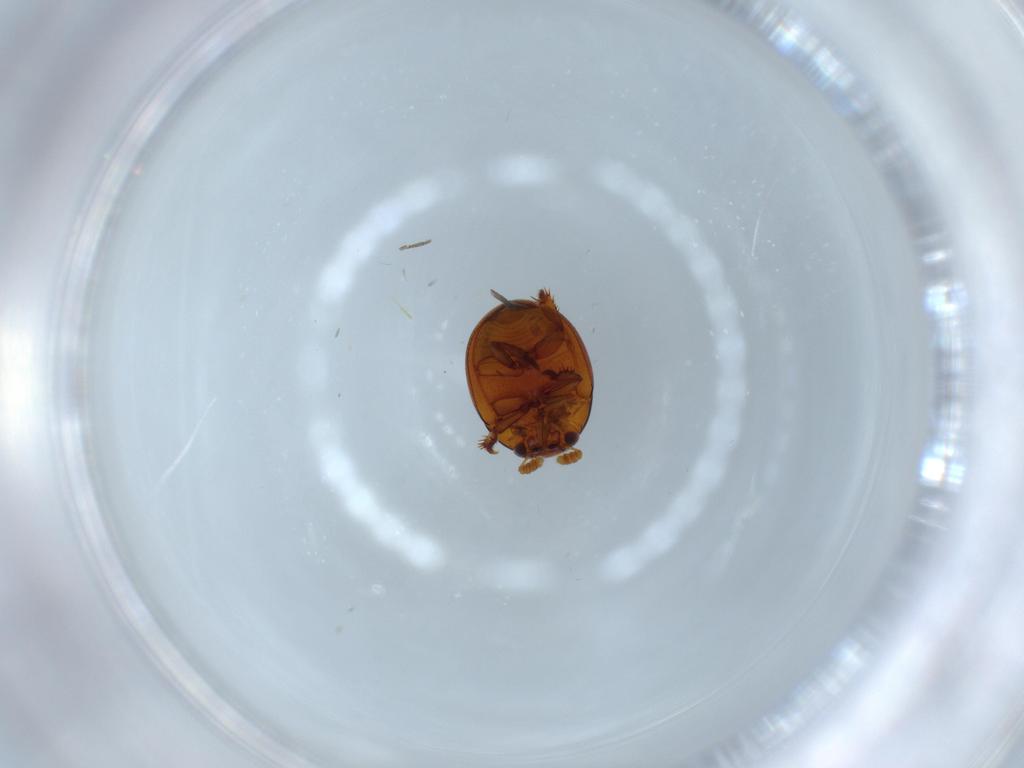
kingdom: Animalia
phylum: Arthropoda
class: Insecta
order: Coleoptera
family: Leiodidae
